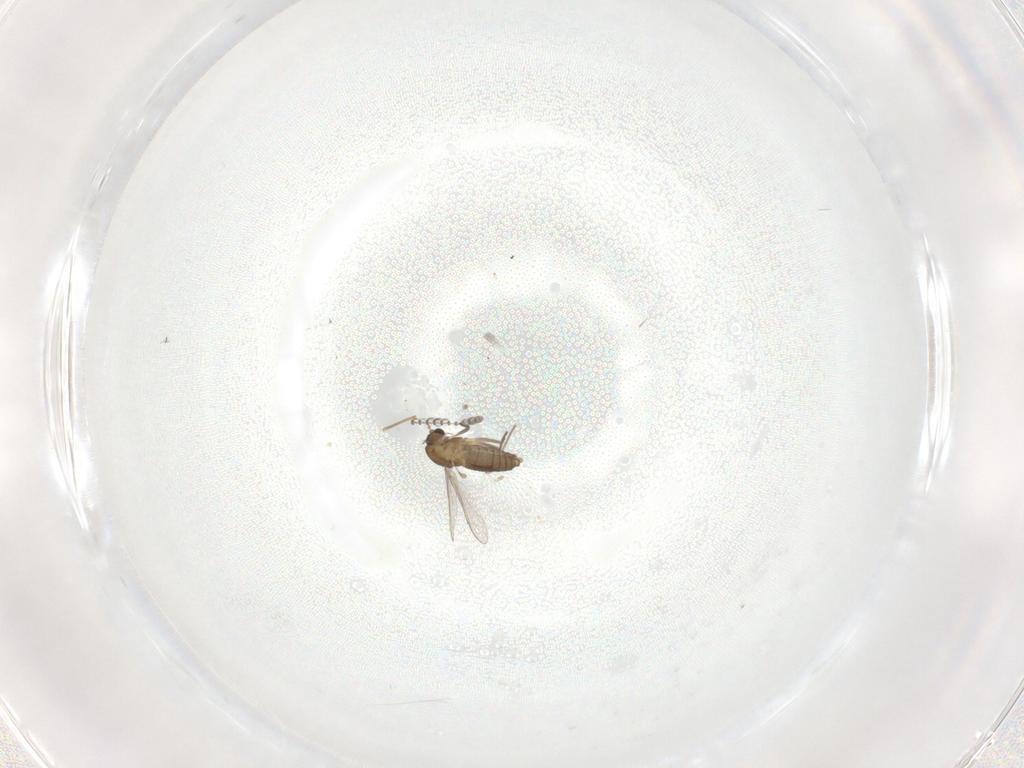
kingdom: Animalia
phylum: Arthropoda
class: Insecta
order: Diptera
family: Chironomidae
